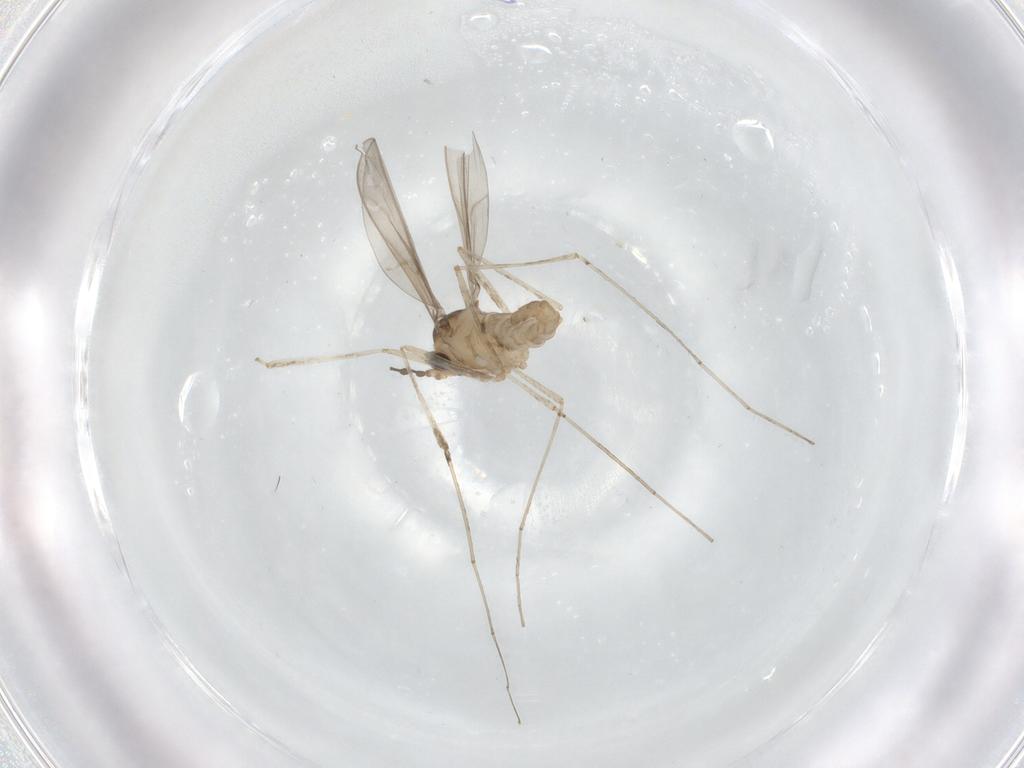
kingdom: Animalia
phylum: Arthropoda
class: Insecta
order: Diptera
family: Cecidomyiidae
